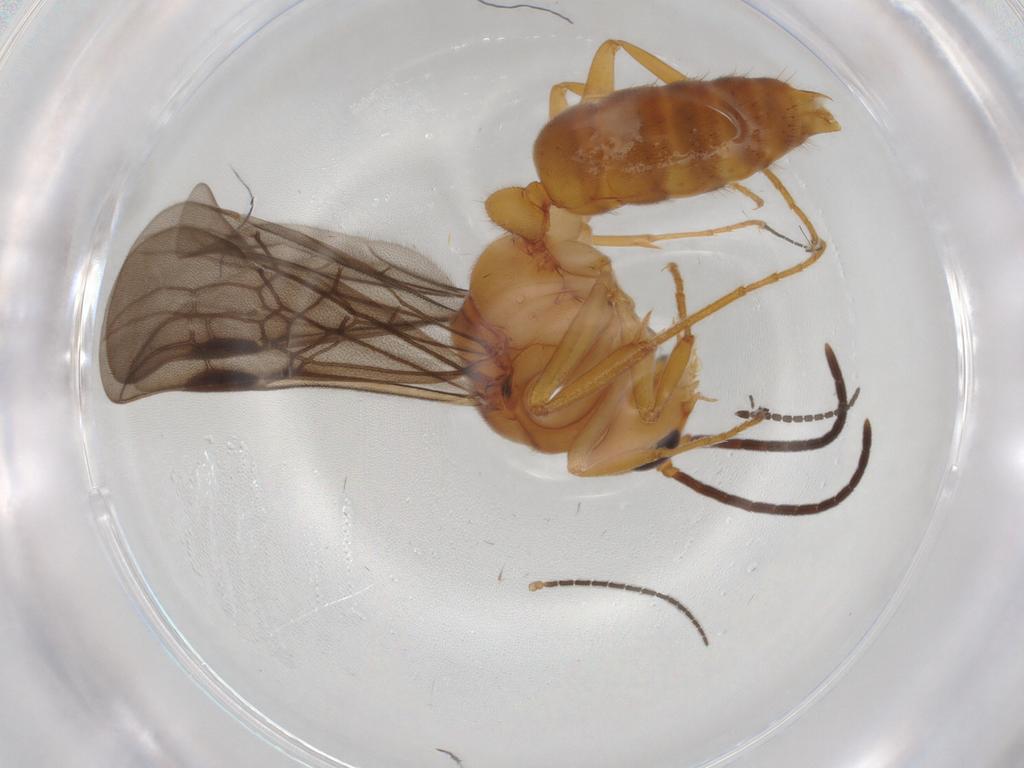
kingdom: Animalia
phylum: Arthropoda
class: Insecta
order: Hymenoptera
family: Formicidae
